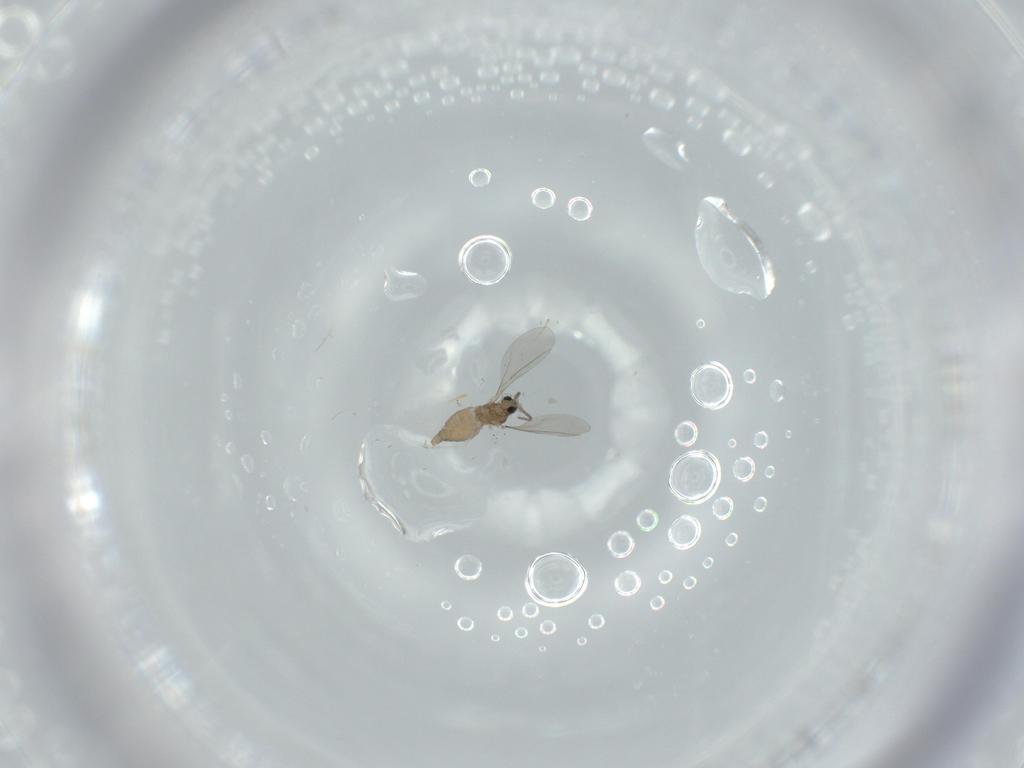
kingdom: Animalia
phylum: Arthropoda
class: Insecta
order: Diptera
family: Cecidomyiidae
